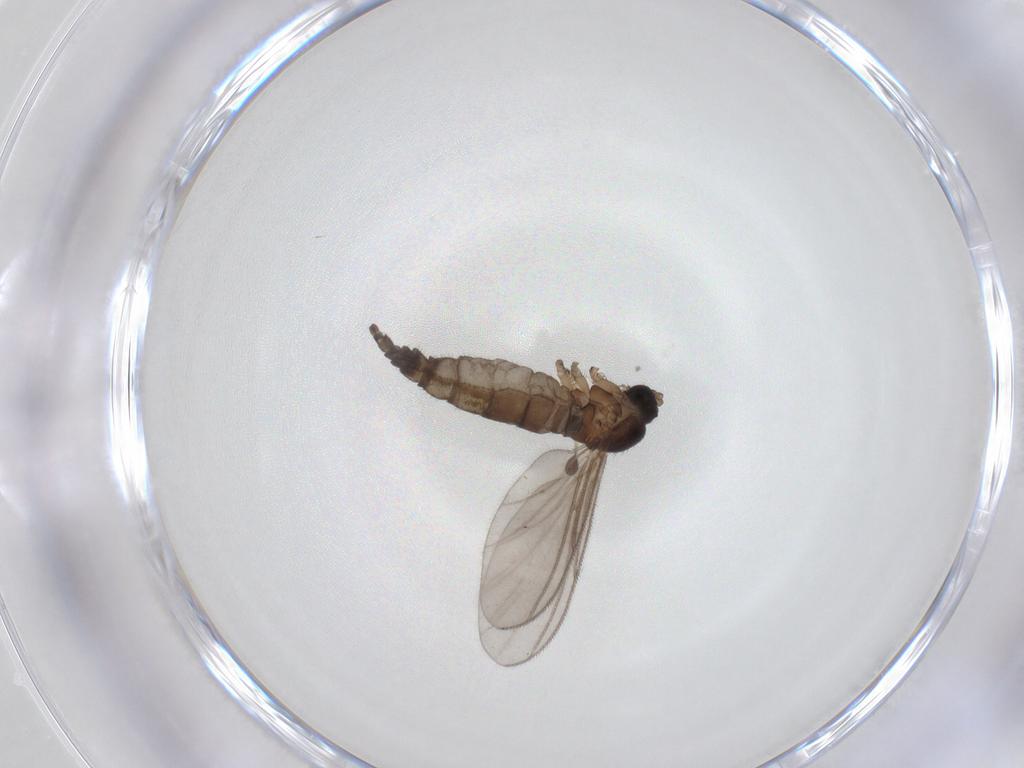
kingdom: Animalia
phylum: Arthropoda
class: Insecta
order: Diptera
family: Sciaridae
